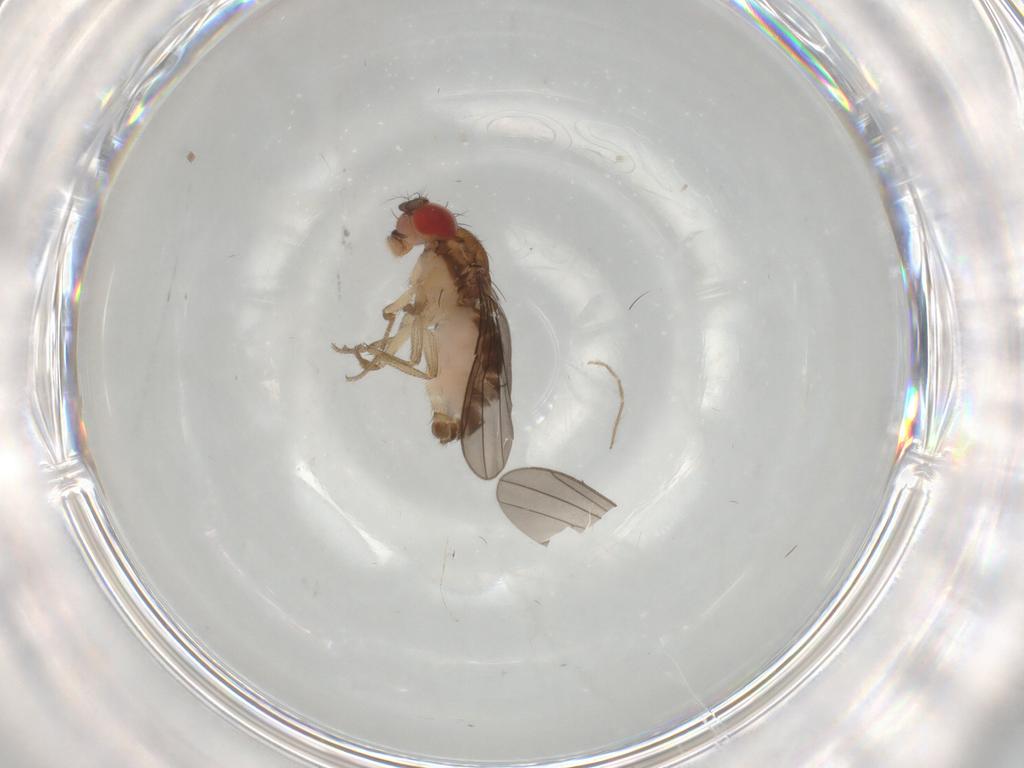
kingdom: Animalia
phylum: Arthropoda
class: Insecta
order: Diptera
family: Drosophilidae
